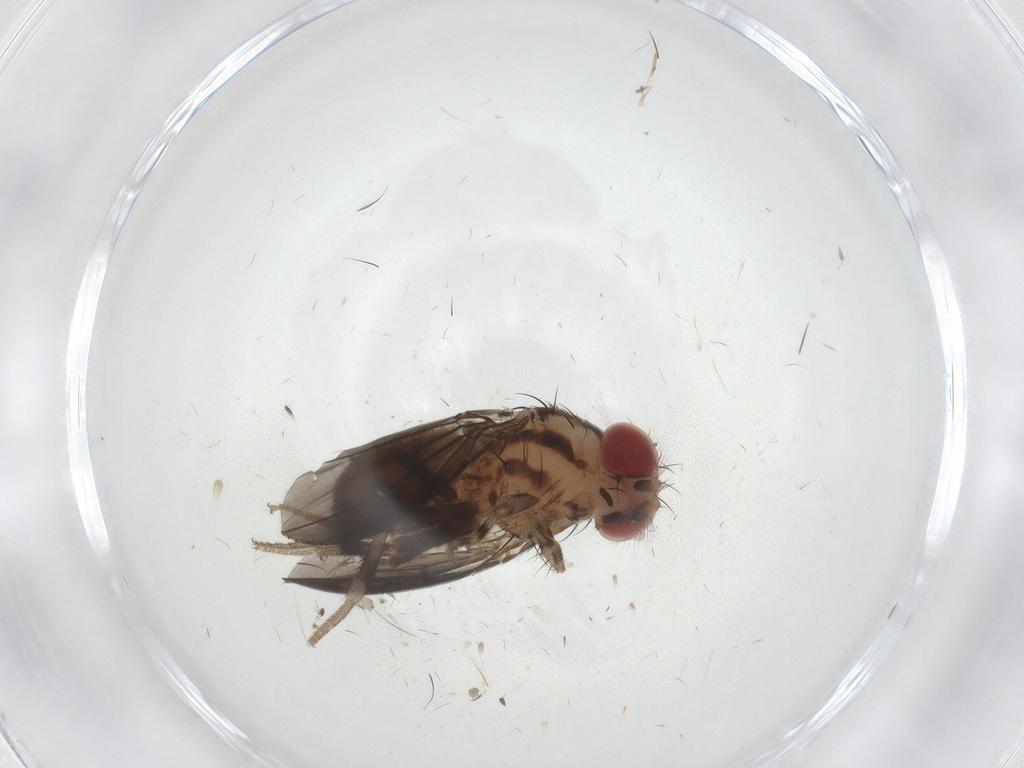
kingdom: Animalia
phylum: Arthropoda
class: Insecta
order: Diptera
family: Drosophilidae
